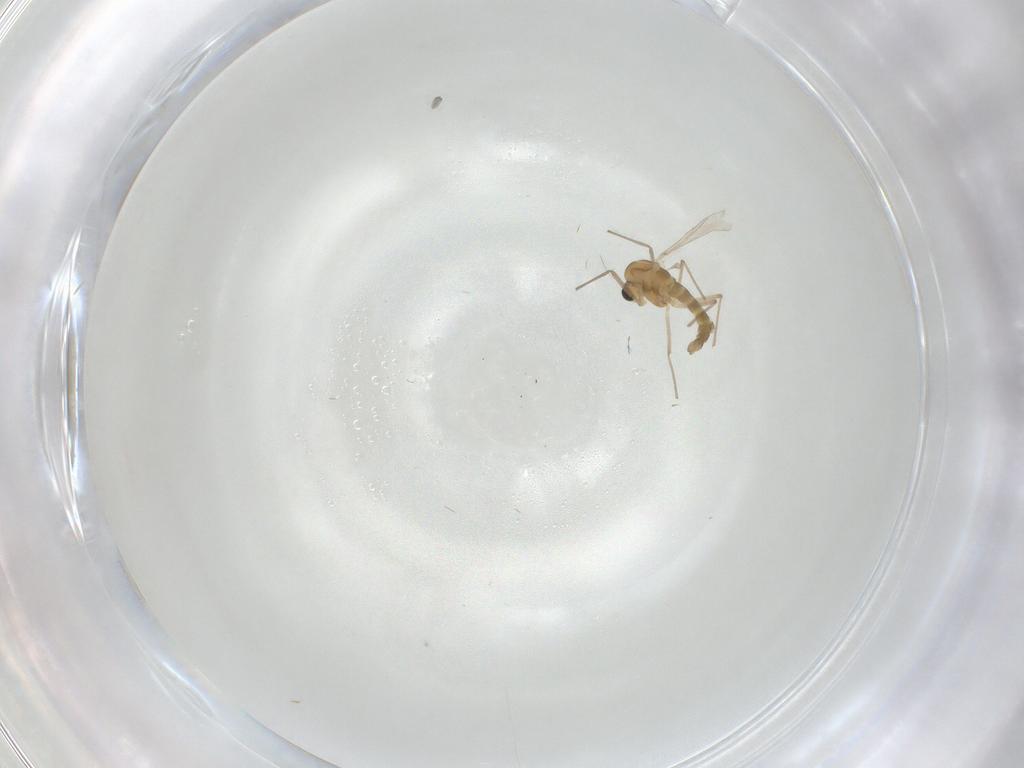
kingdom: Animalia
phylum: Arthropoda
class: Insecta
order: Diptera
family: Chironomidae
